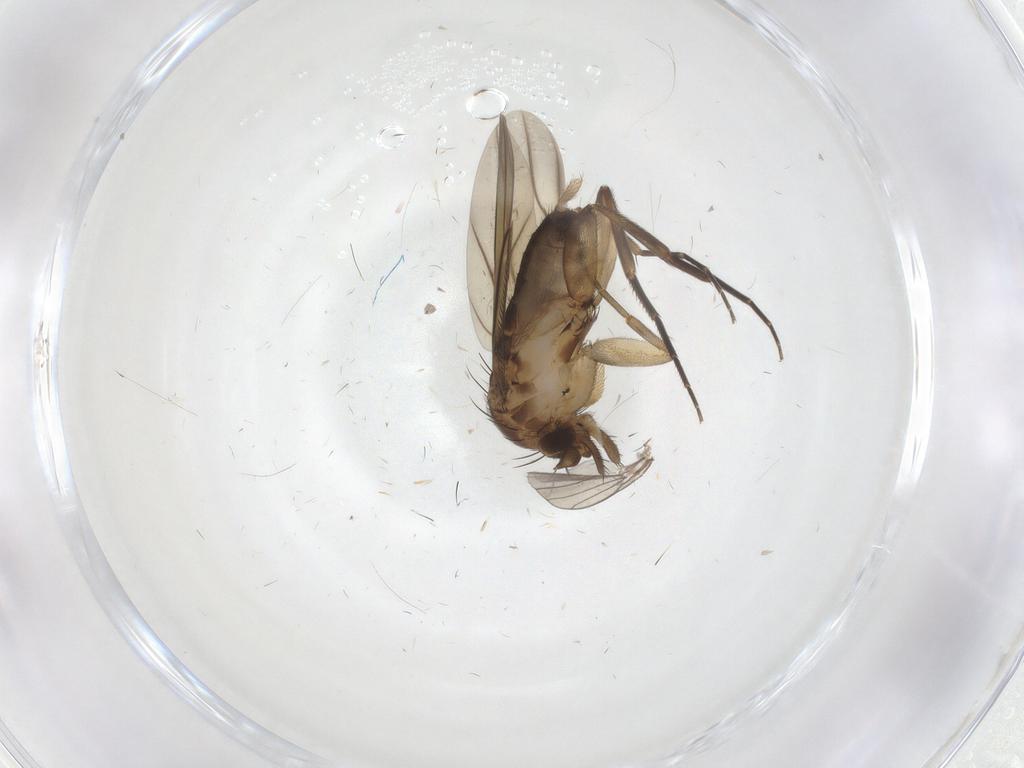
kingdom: Animalia
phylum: Arthropoda
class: Insecta
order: Diptera
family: Phoridae
